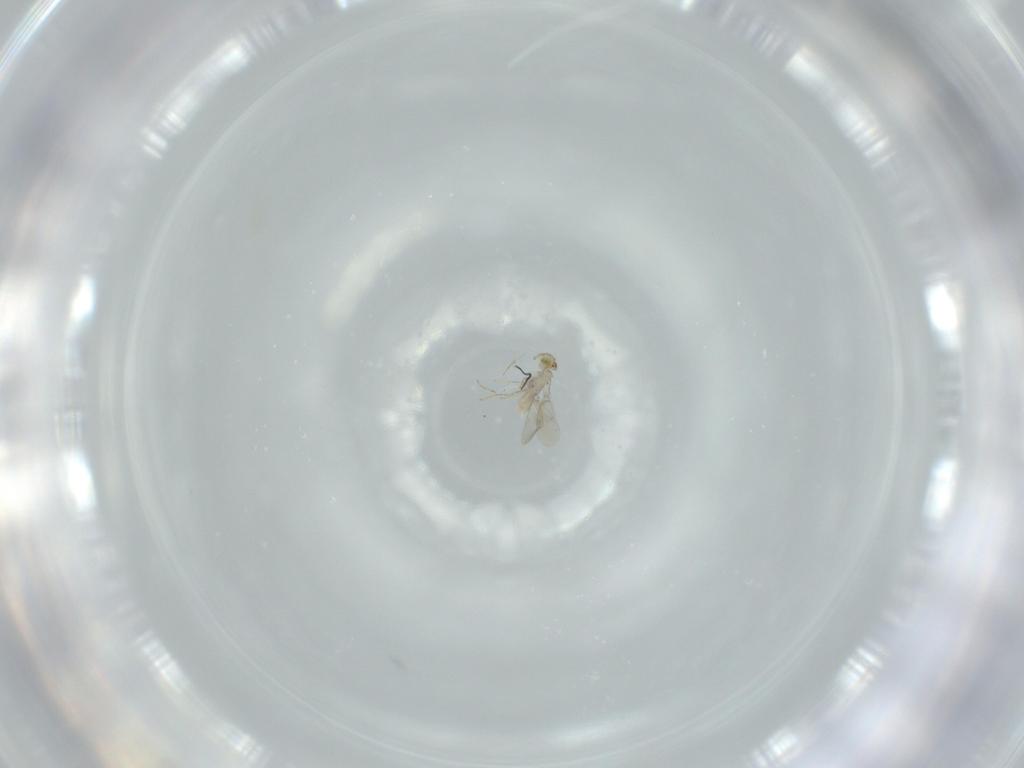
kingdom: Animalia
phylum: Arthropoda
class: Insecta
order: Hymenoptera
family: Aphelinidae
